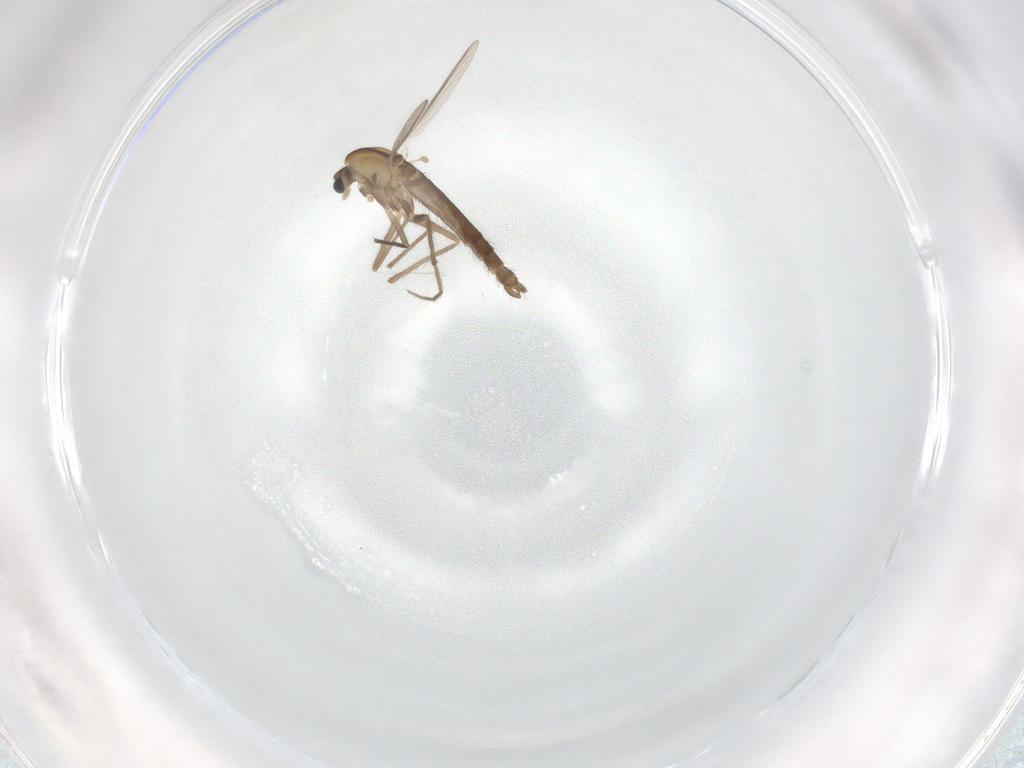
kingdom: Animalia
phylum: Arthropoda
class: Insecta
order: Diptera
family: Chironomidae
